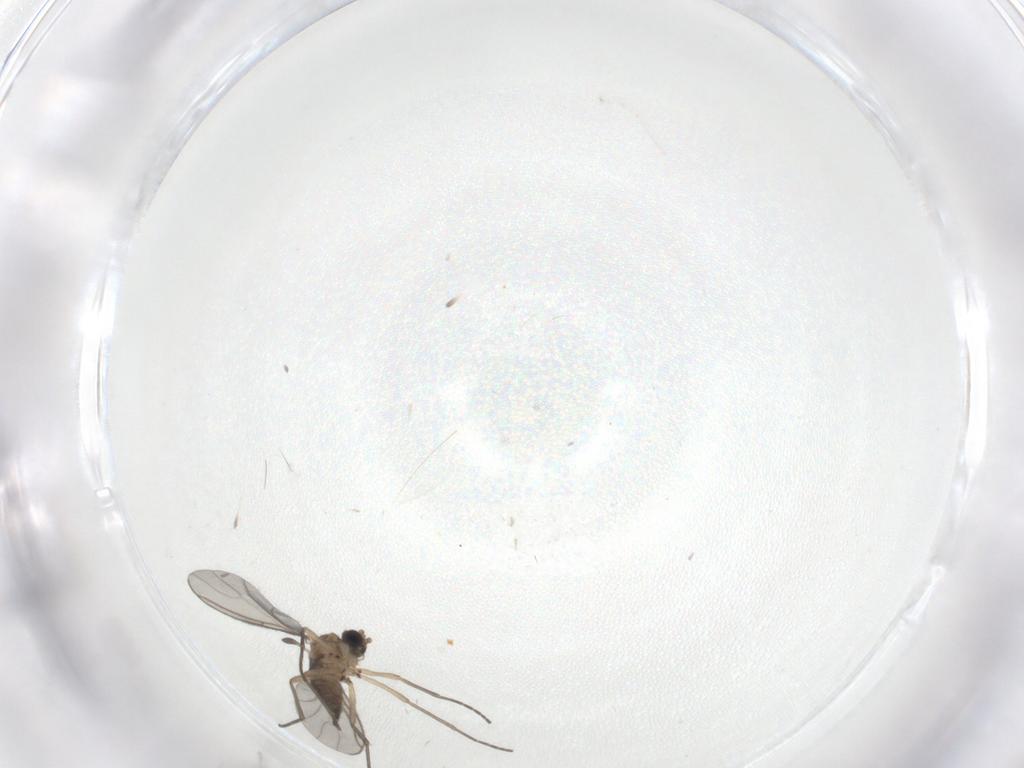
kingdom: Animalia
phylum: Arthropoda
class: Insecta
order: Diptera
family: Sciaridae
